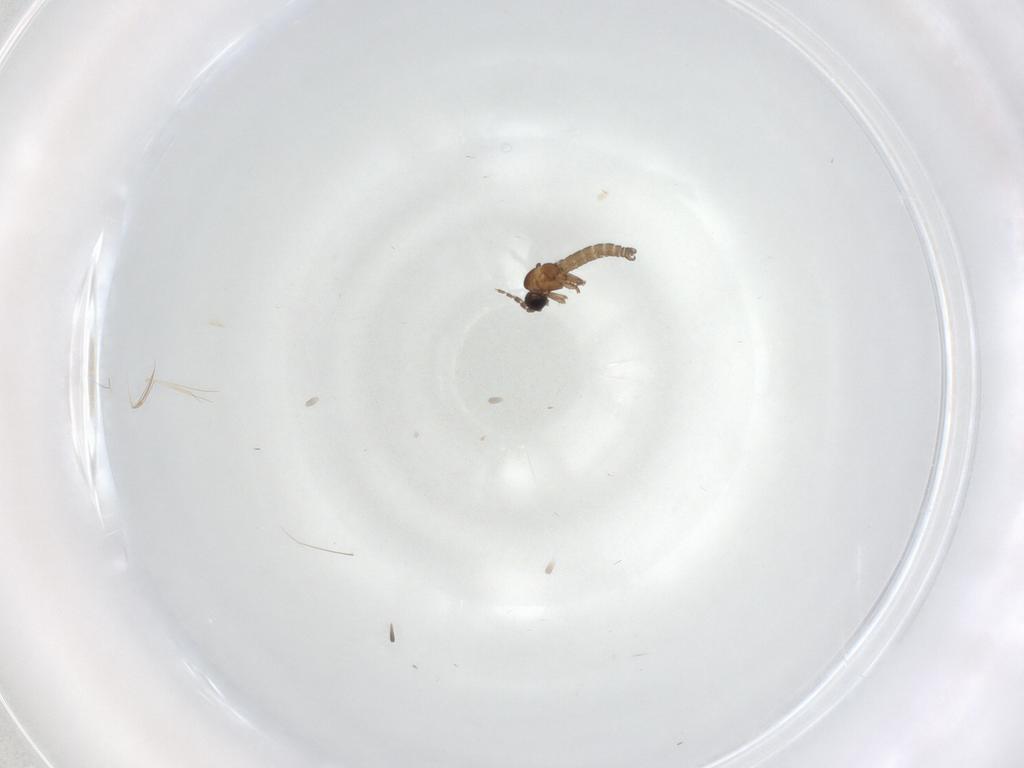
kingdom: Animalia
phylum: Arthropoda
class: Insecta
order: Diptera
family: Sciaridae
